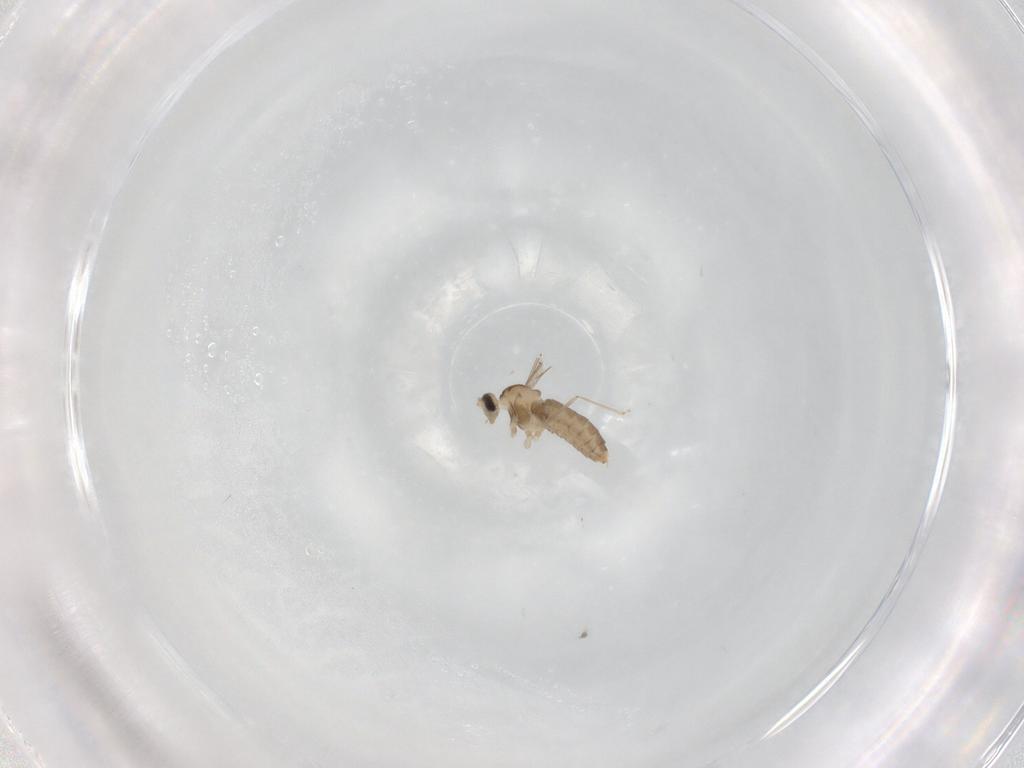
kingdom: Animalia
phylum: Arthropoda
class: Insecta
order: Diptera
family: Cecidomyiidae
